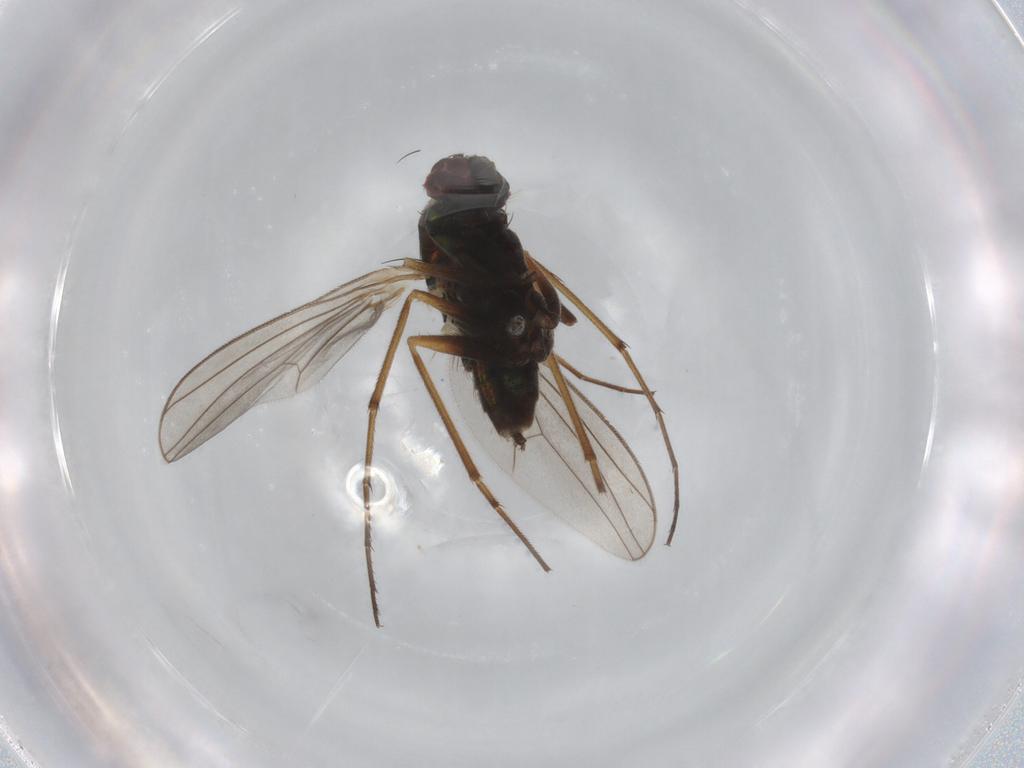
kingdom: Animalia
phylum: Arthropoda
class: Insecta
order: Diptera
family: Dolichopodidae
